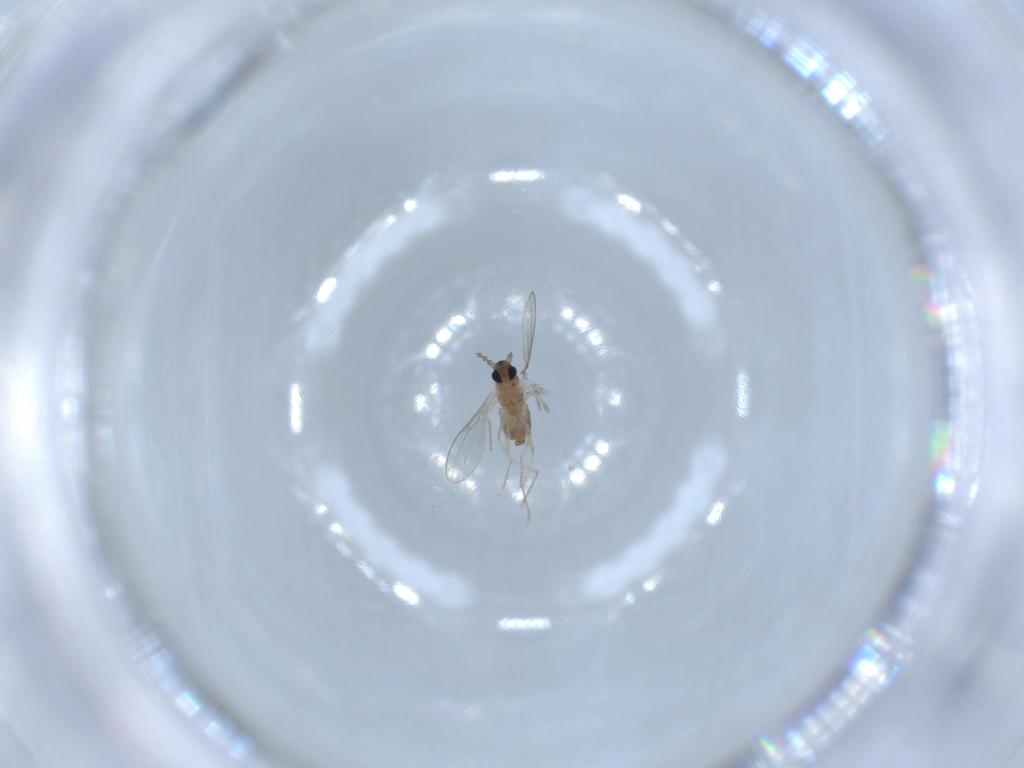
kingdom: Animalia
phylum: Arthropoda
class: Insecta
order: Diptera
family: Cecidomyiidae
